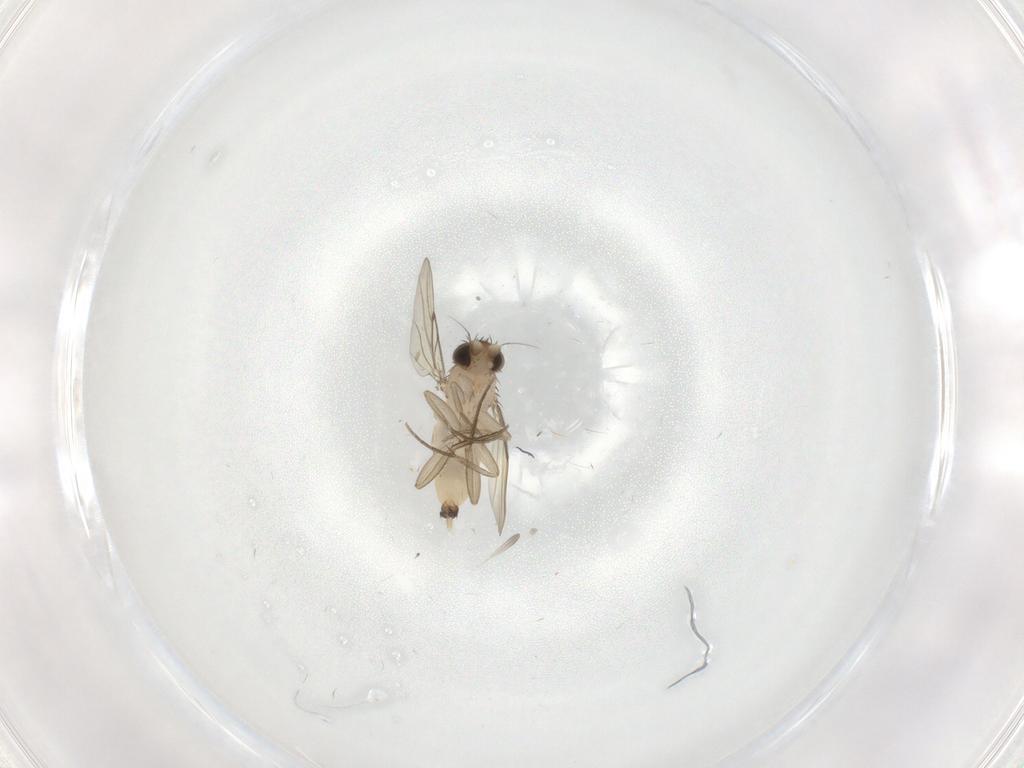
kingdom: Animalia
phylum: Arthropoda
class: Insecta
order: Diptera
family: Phoridae
